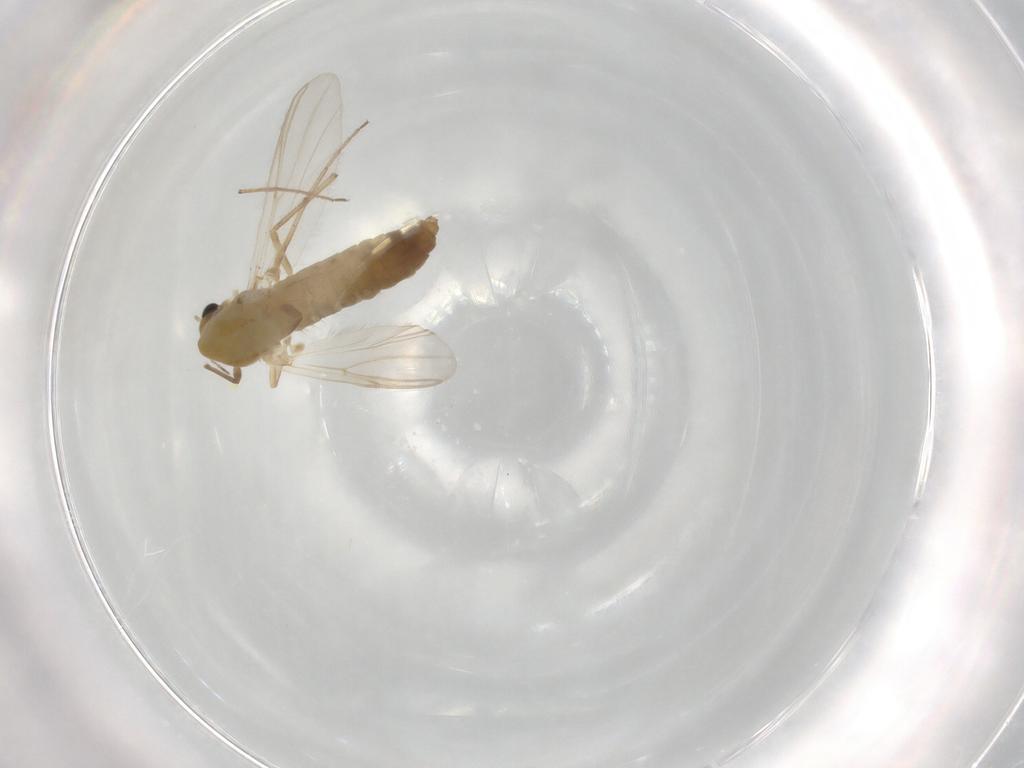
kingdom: Animalia
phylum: Arthropoda
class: Insecta
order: Diptera
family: Chironomidae
